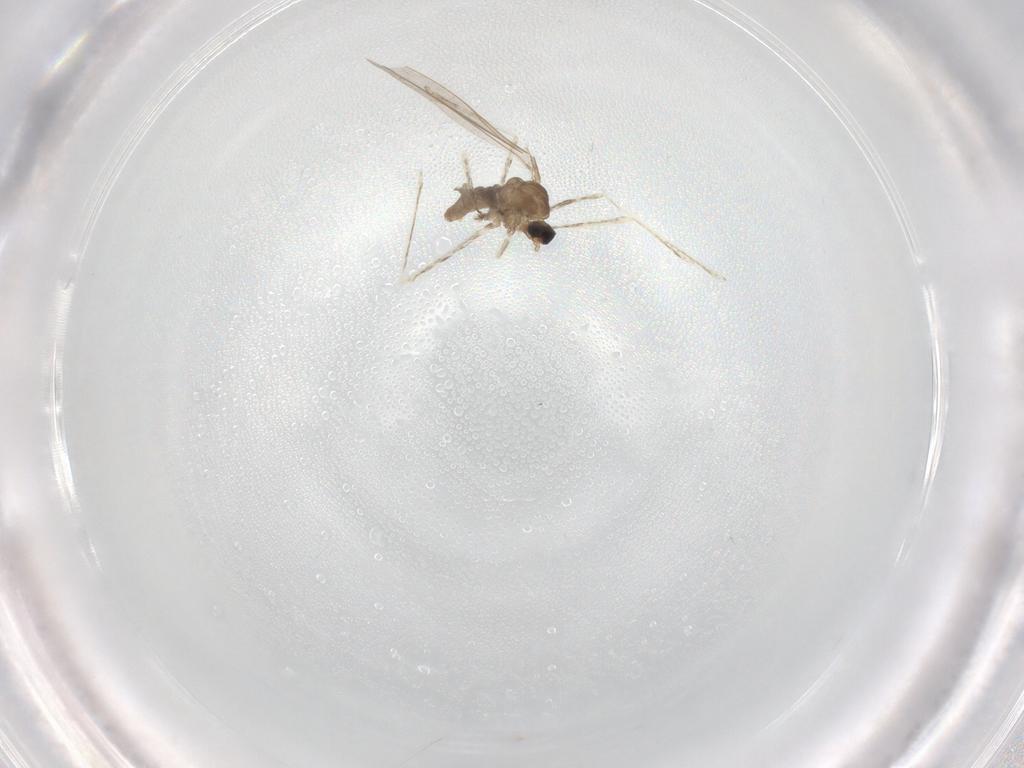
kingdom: Animalia
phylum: Arthropoda
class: Insecta
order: Diptera
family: Cecidomyiidae
